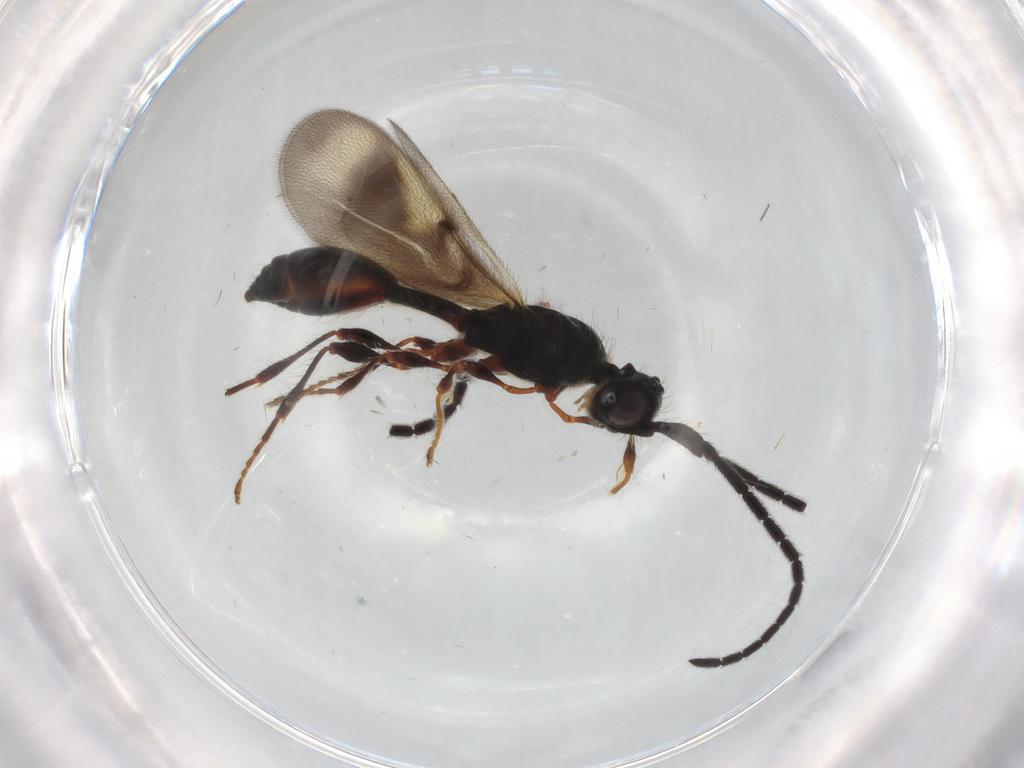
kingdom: Animalia
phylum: Arthropoda
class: Insecta
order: Hymenoptera
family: Diapriidae
